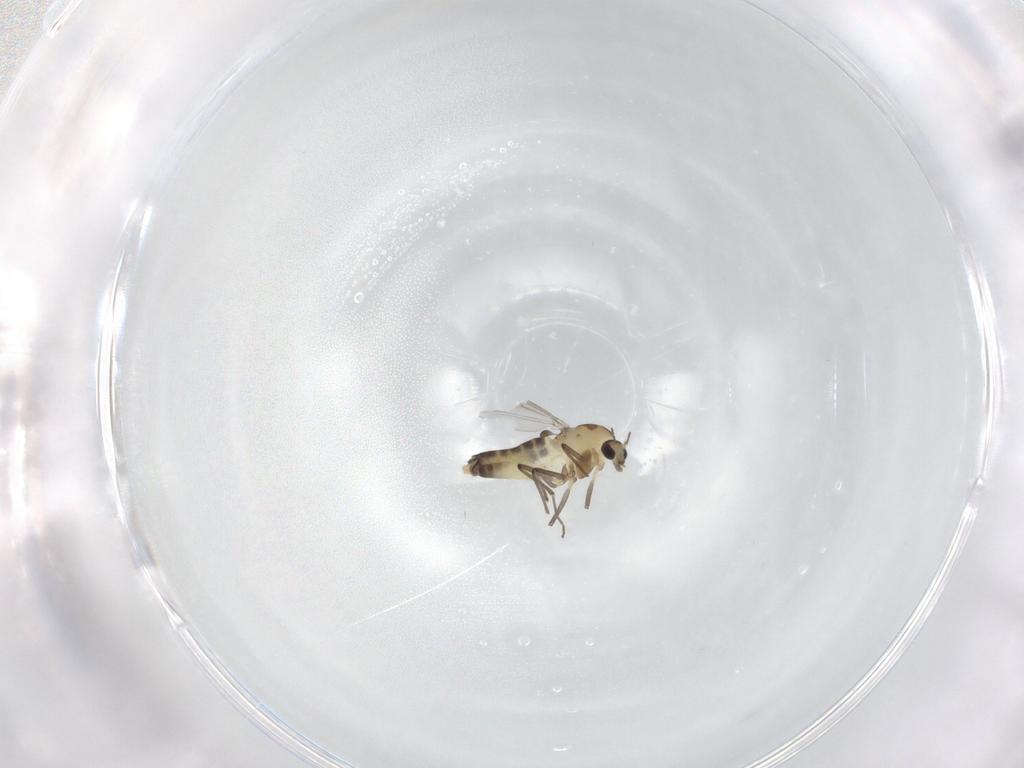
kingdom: Animalia
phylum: Arthropoda
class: Insecta
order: Diptera
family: Chironomidae
